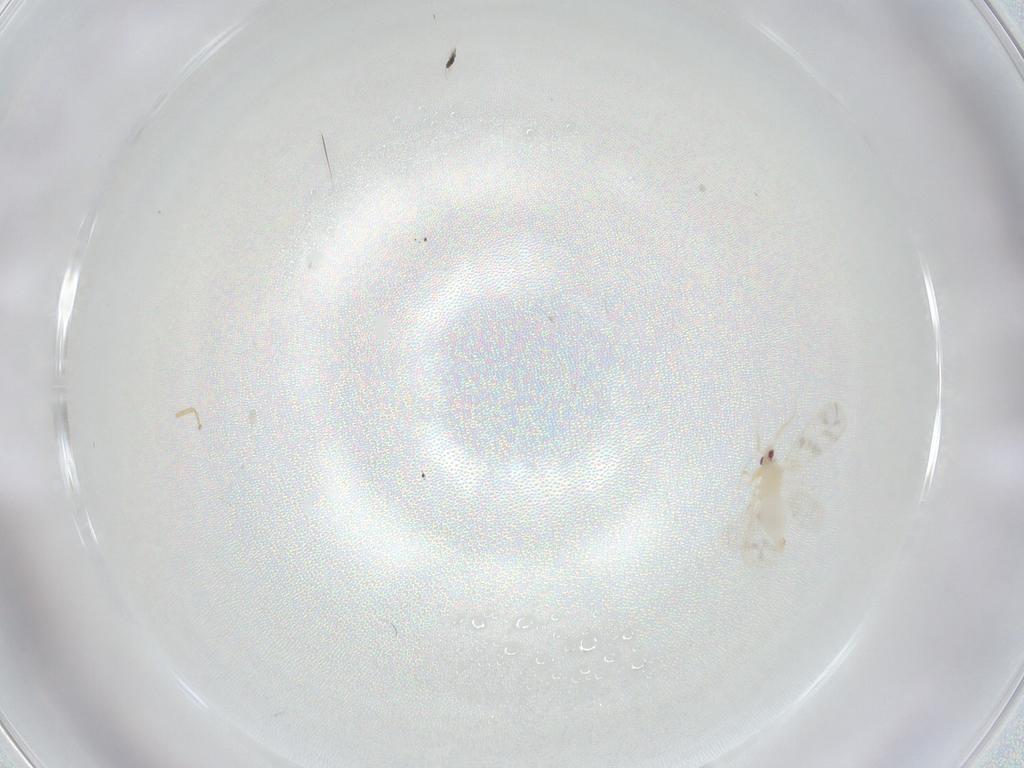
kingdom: Animalia
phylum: Arthropoda
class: Insecta
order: Hemiptera
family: Aleyrodidae
